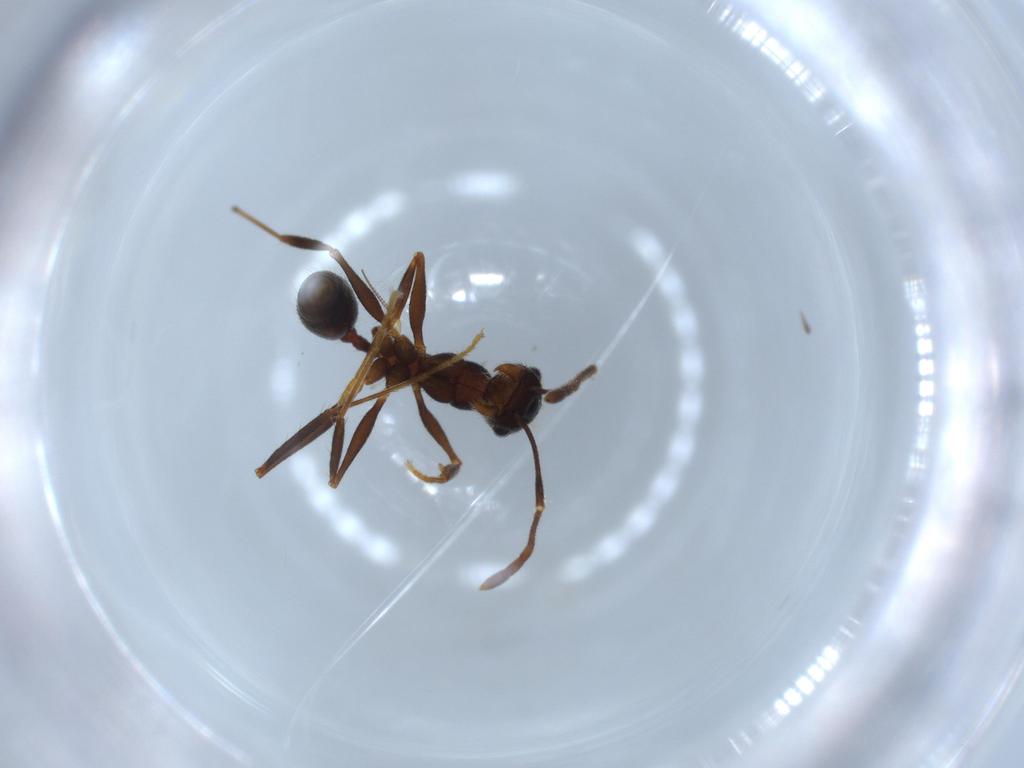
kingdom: Animalia
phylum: Arthropoda
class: Insecta
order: Hymenoptera
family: Formicidae
